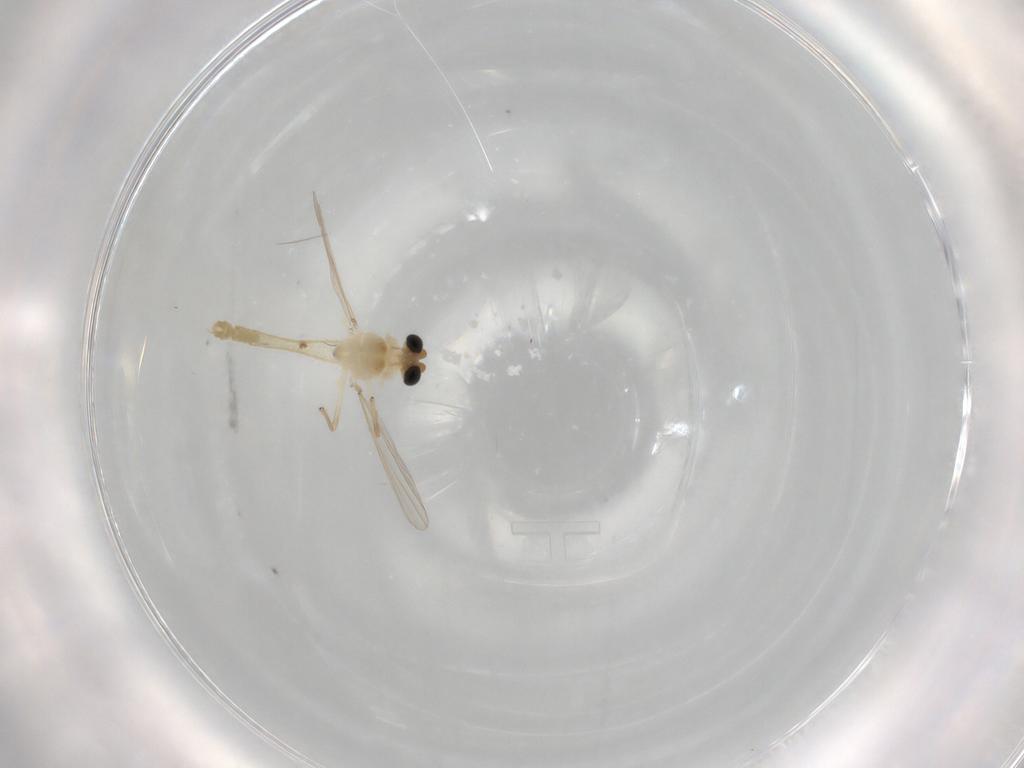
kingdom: Animalia
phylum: Arthropoda
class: Insecta
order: Diptera
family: Chironomidae
